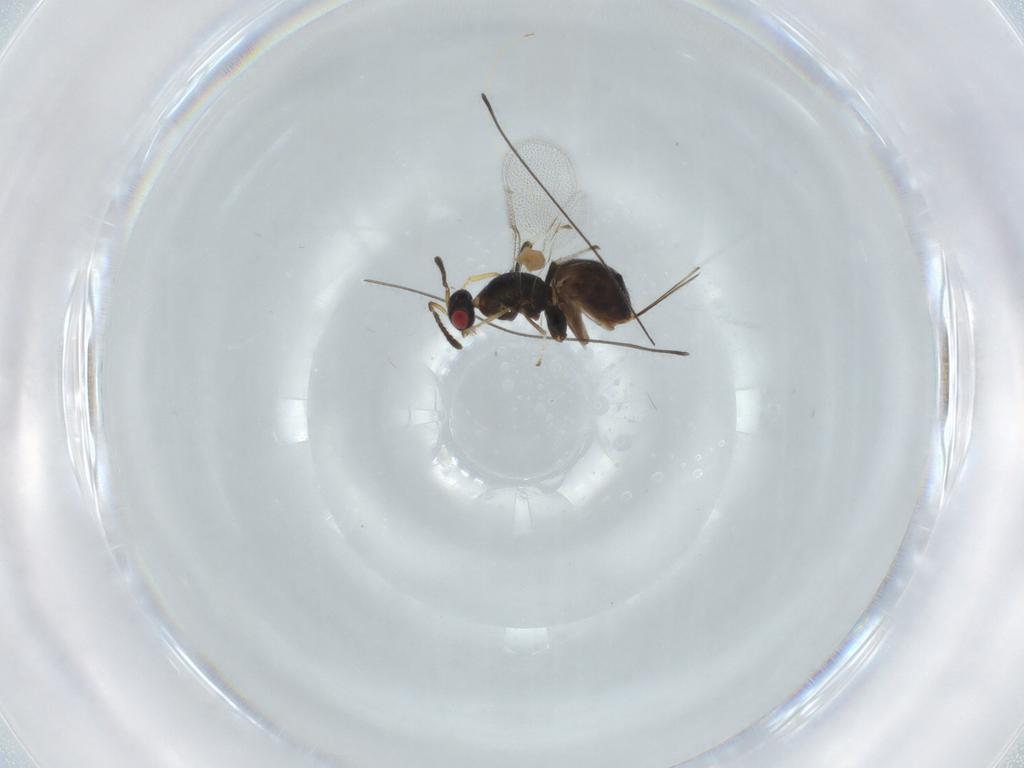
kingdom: Animalia
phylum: Arthropoda
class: Insecta
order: Hymenoptera
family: Torymidae
